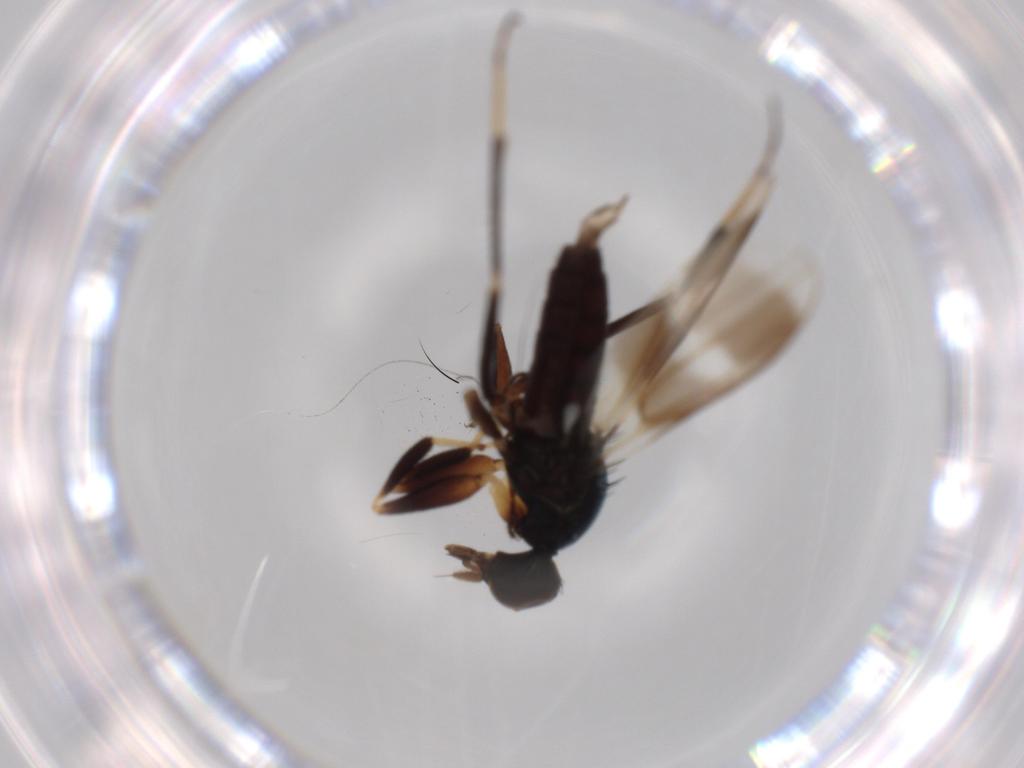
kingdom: Animalia
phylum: Arthropoda
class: Insecta
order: Diptera
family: Hybotidae
